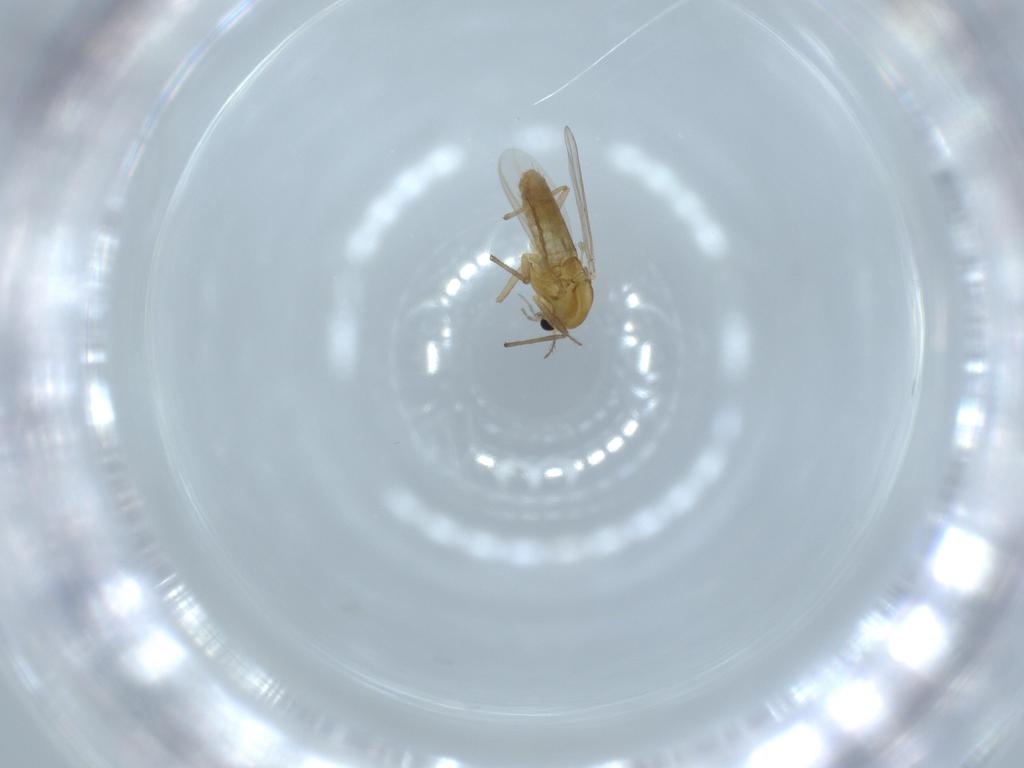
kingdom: Animalia
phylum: Arthropoda
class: Insecta
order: Diptera
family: Chironomidae
